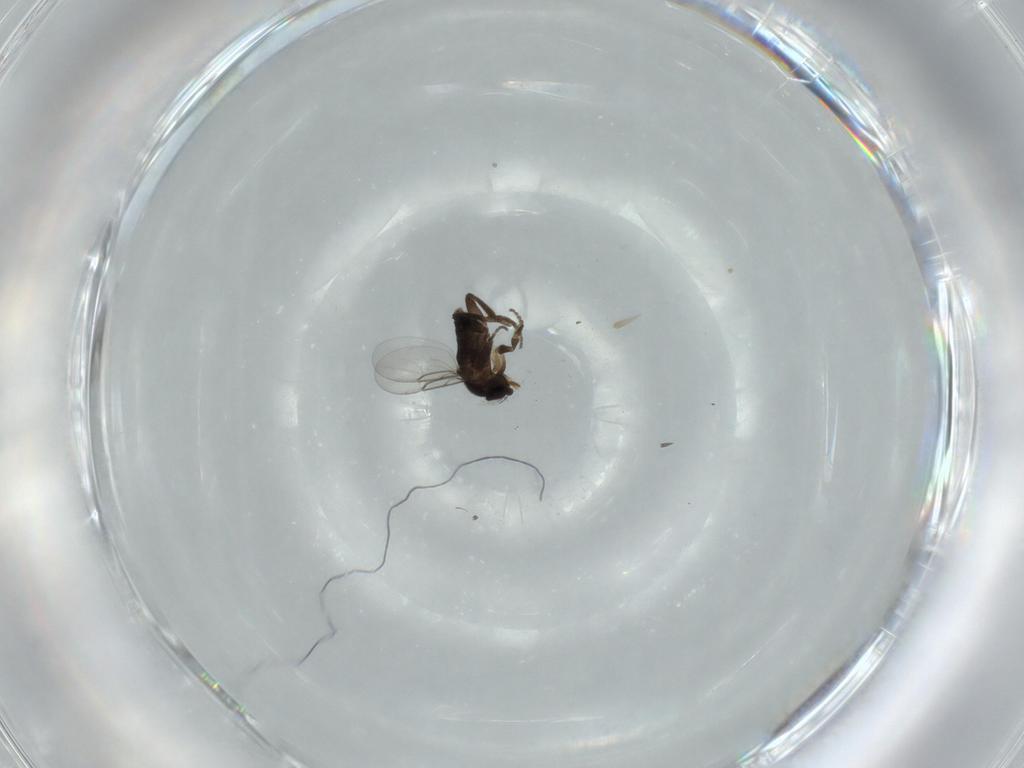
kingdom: Animalia
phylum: Arthropoda
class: Insecta
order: Diptera
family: Phoridae
